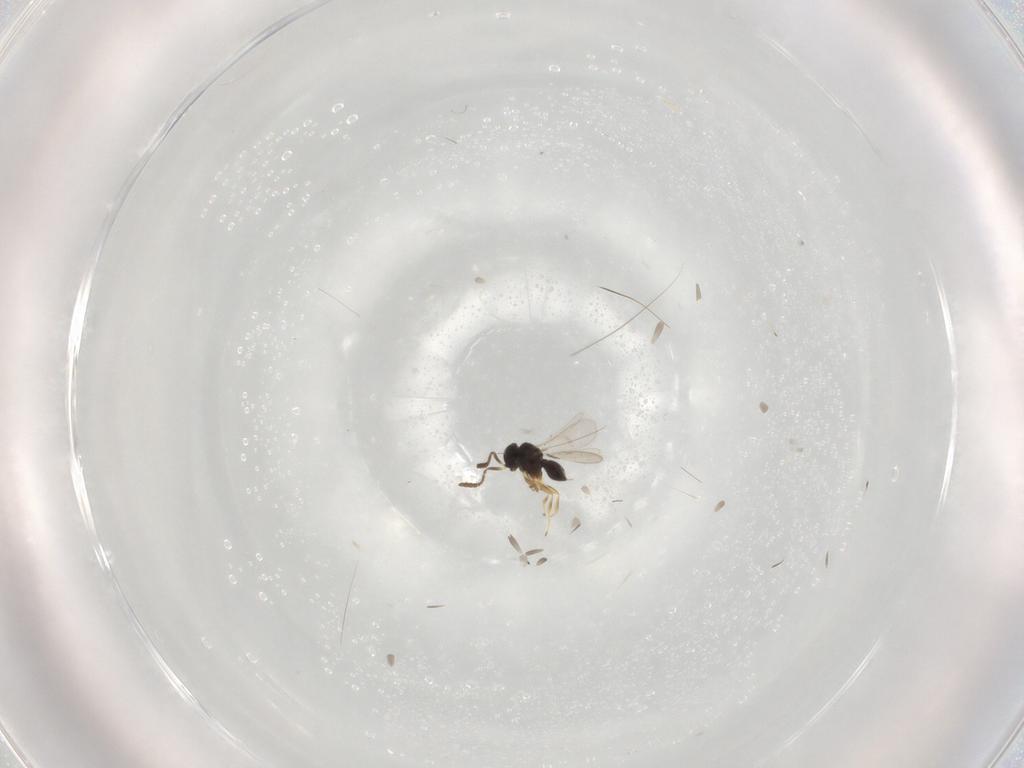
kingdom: Animalia
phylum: Arthropoda
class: Insecta
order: Hymenoptera
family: Scelionidae
